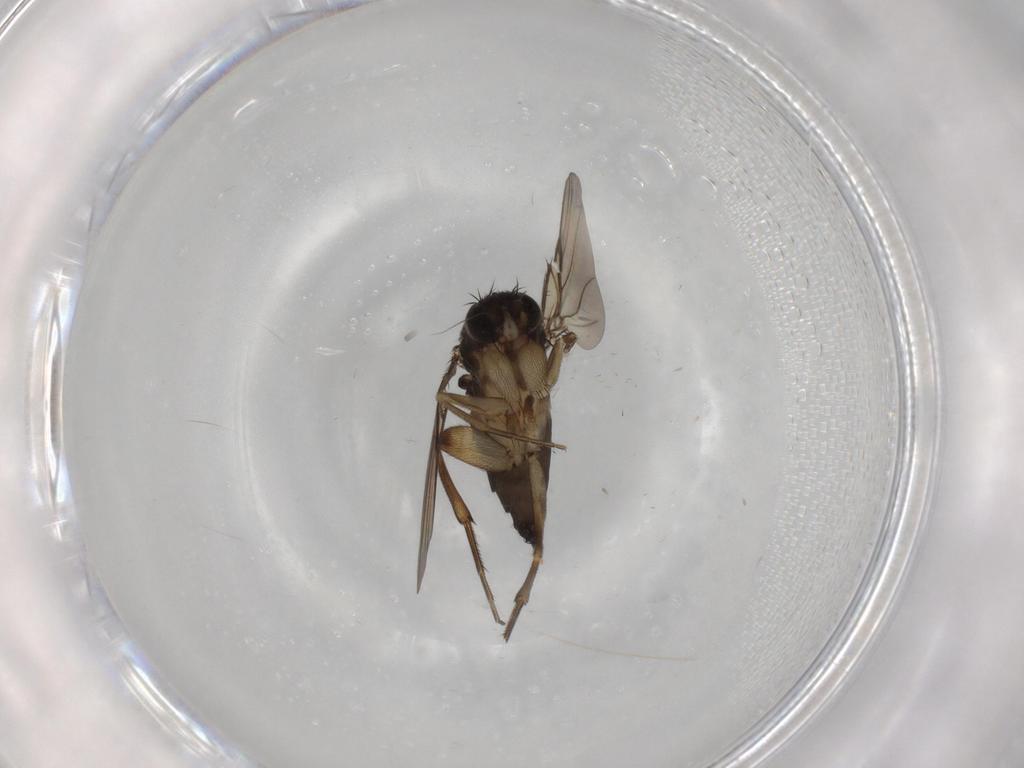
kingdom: Animalia
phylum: Arthropoda
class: Insecta
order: Diptera
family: Phoridae
